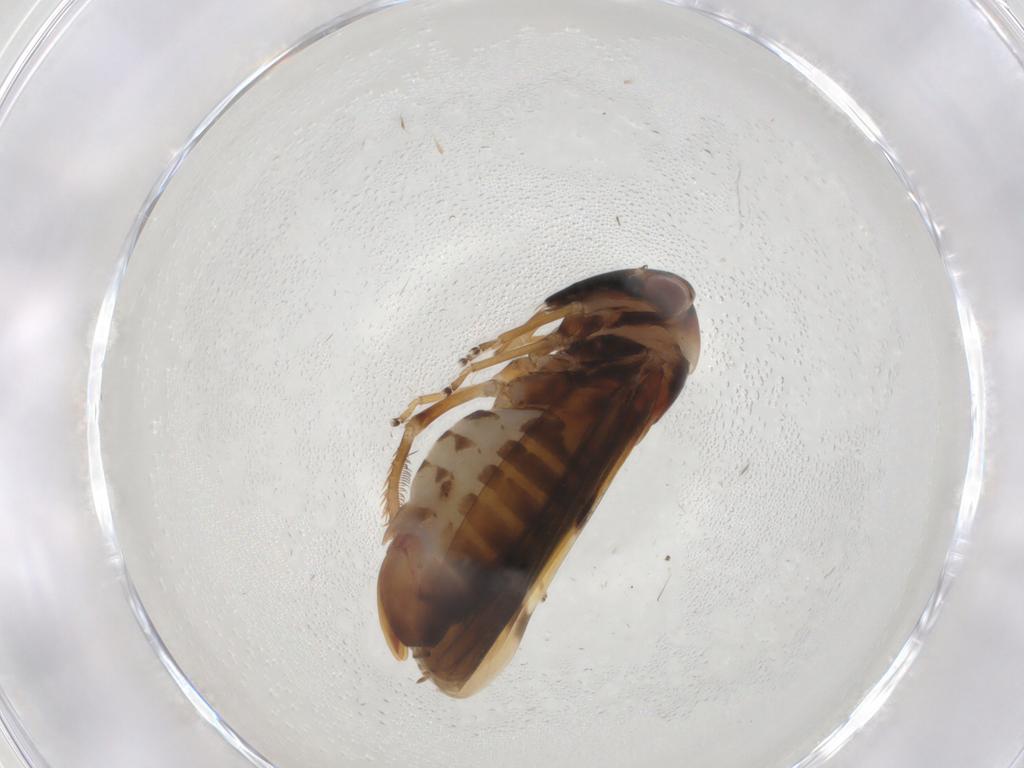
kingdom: Animalia
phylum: Arthropoda
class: Insecta
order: Hemiptera
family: Cicadellidae
